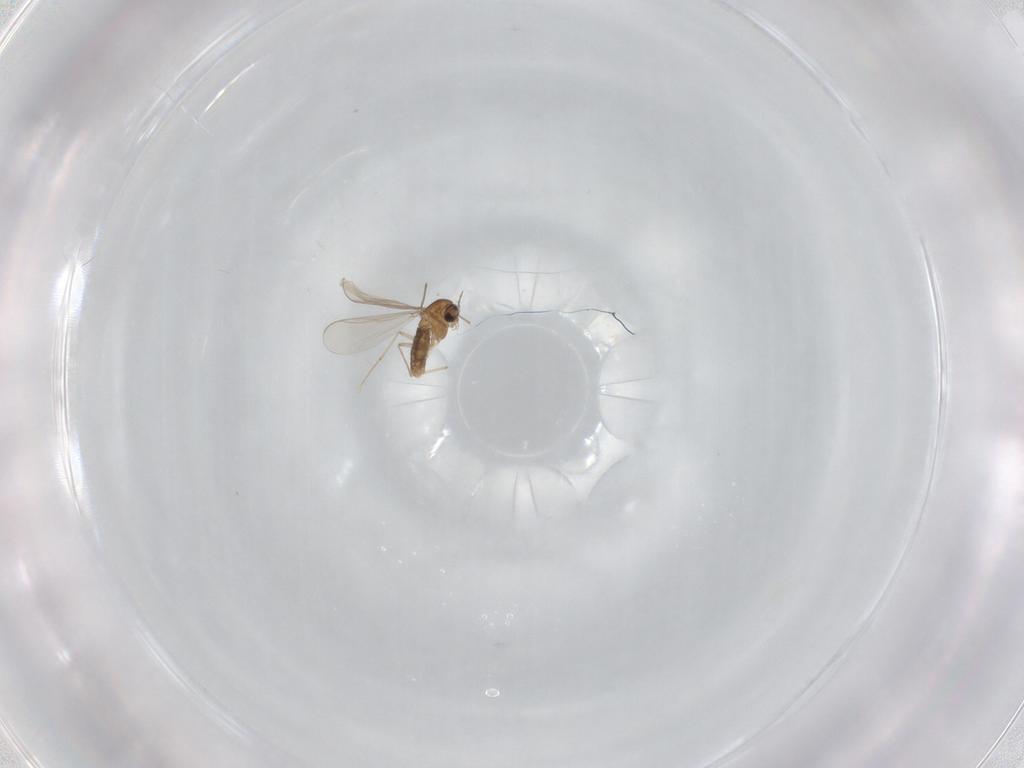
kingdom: Animalia
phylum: Arthropoda
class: Insecta
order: Diptera
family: Chironomidae
